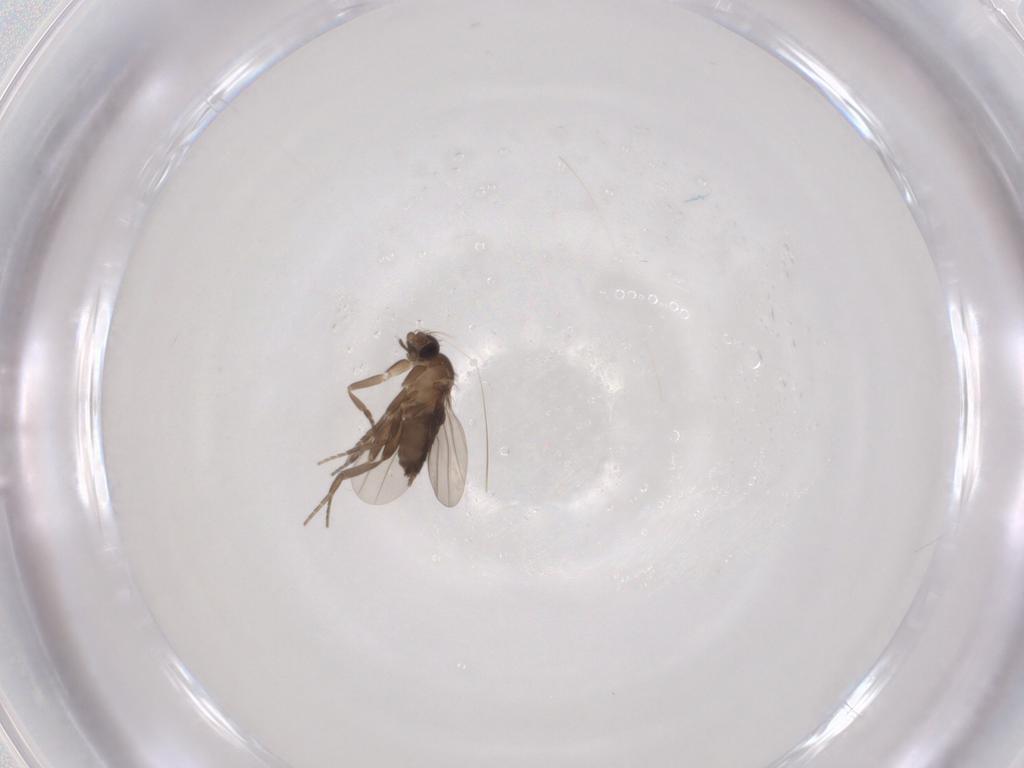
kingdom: Animalia
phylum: Arthropoda
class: Insecta
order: Diptera
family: Phoridae
